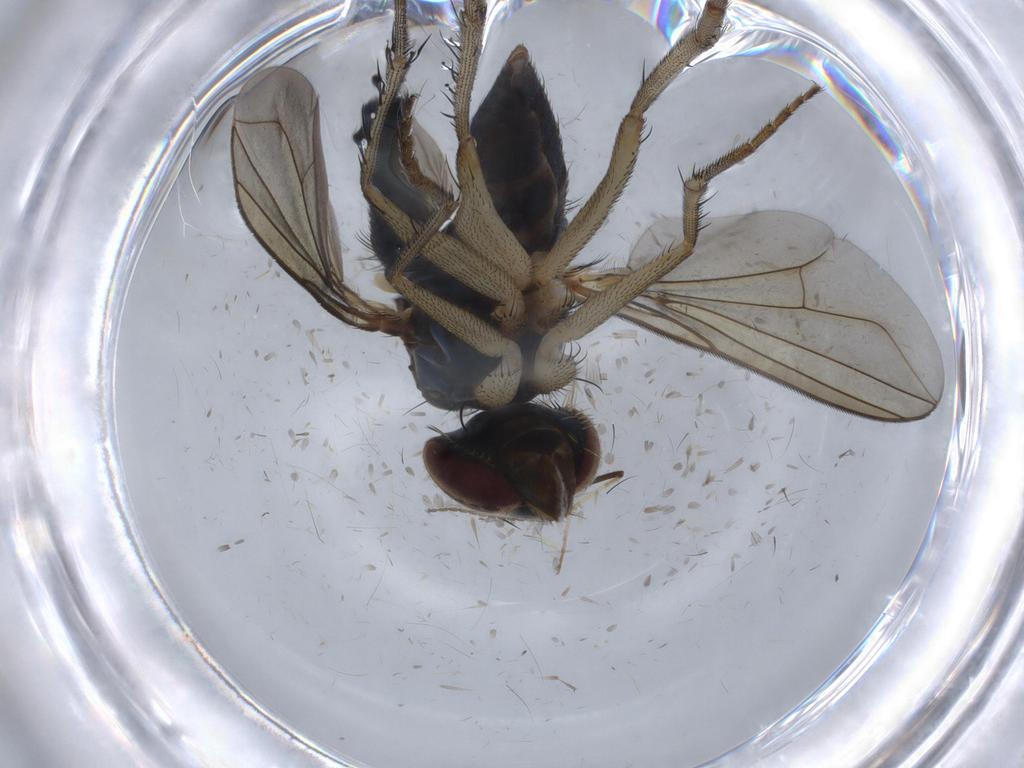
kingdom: Animalia
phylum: Arthropoda
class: Insecta
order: Diptera
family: Dolichopodidae
